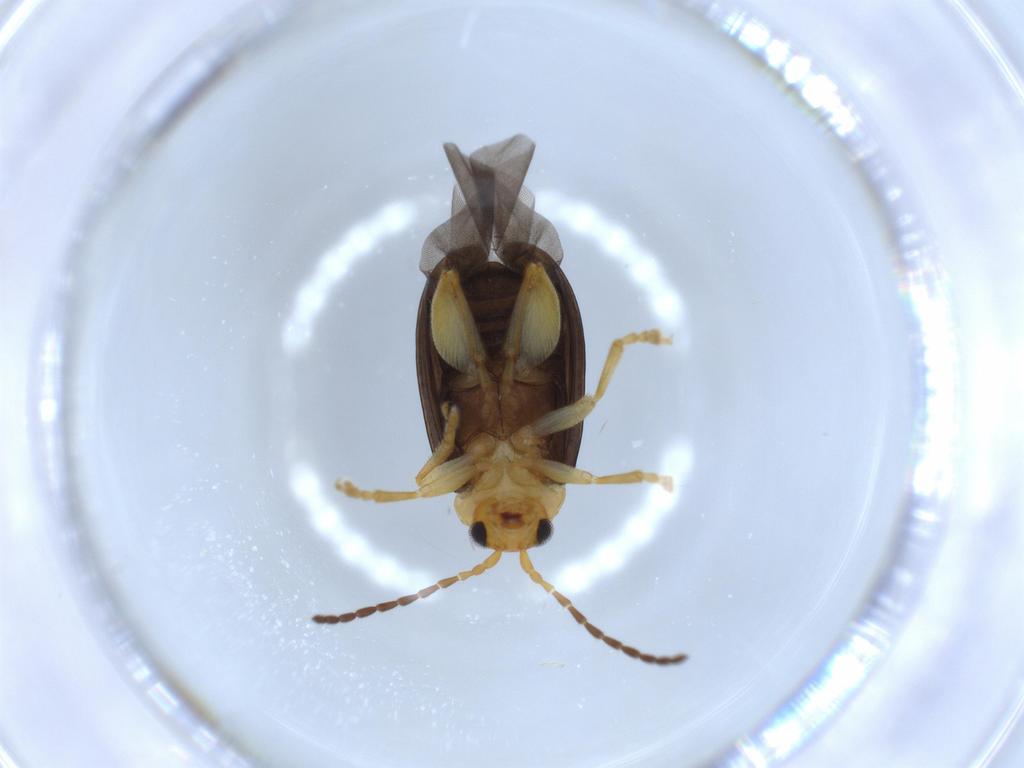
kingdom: Animalia
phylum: Arthropoda
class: Insecta
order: Coleoptera
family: Chrysomelidae
